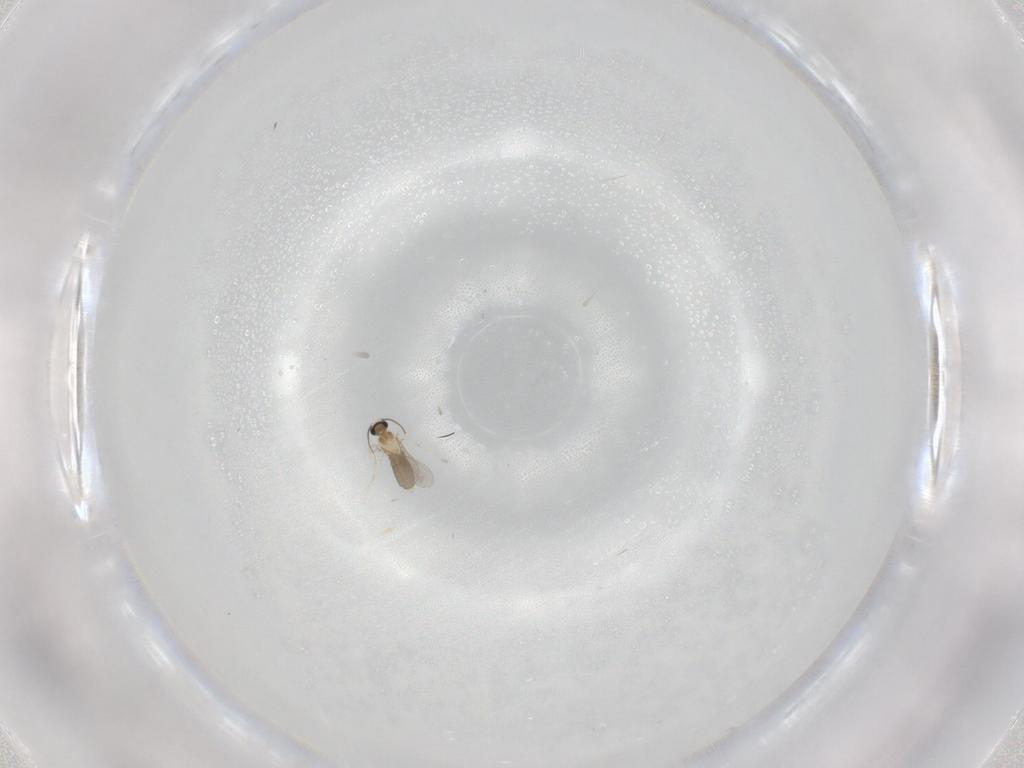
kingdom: Animalia
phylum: Arthropoda
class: Insecta
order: Diptera
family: Cecidomyiidae
